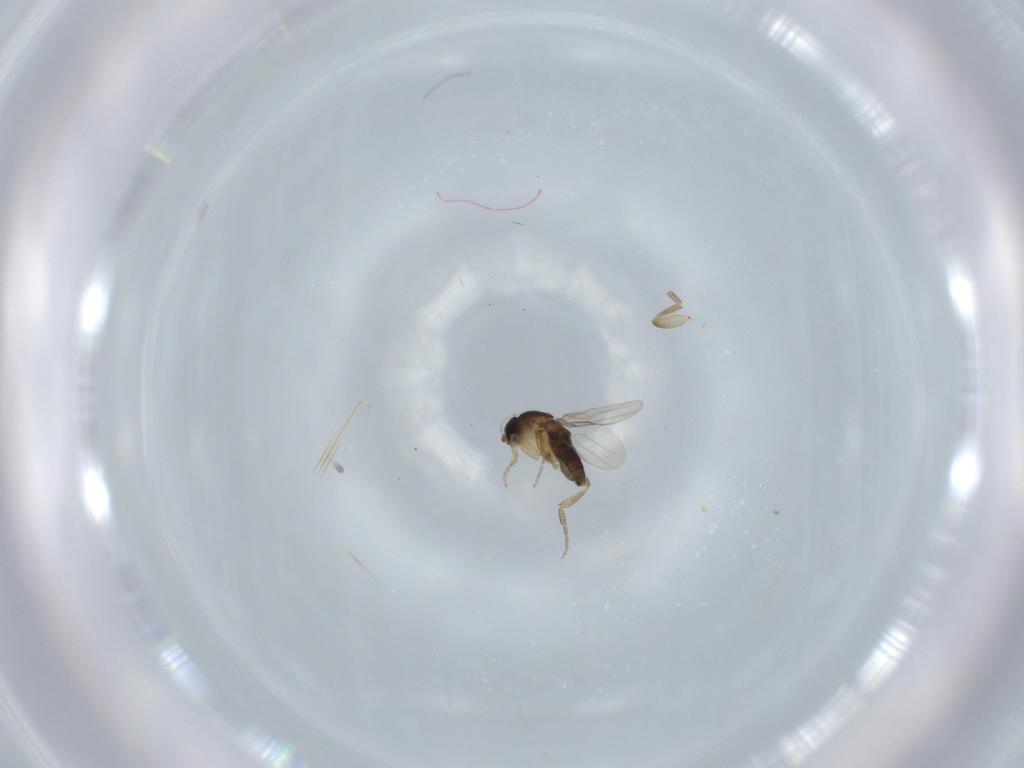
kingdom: Animalia
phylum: Arthropoda
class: Insecta
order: Diptera
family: Phoridae
